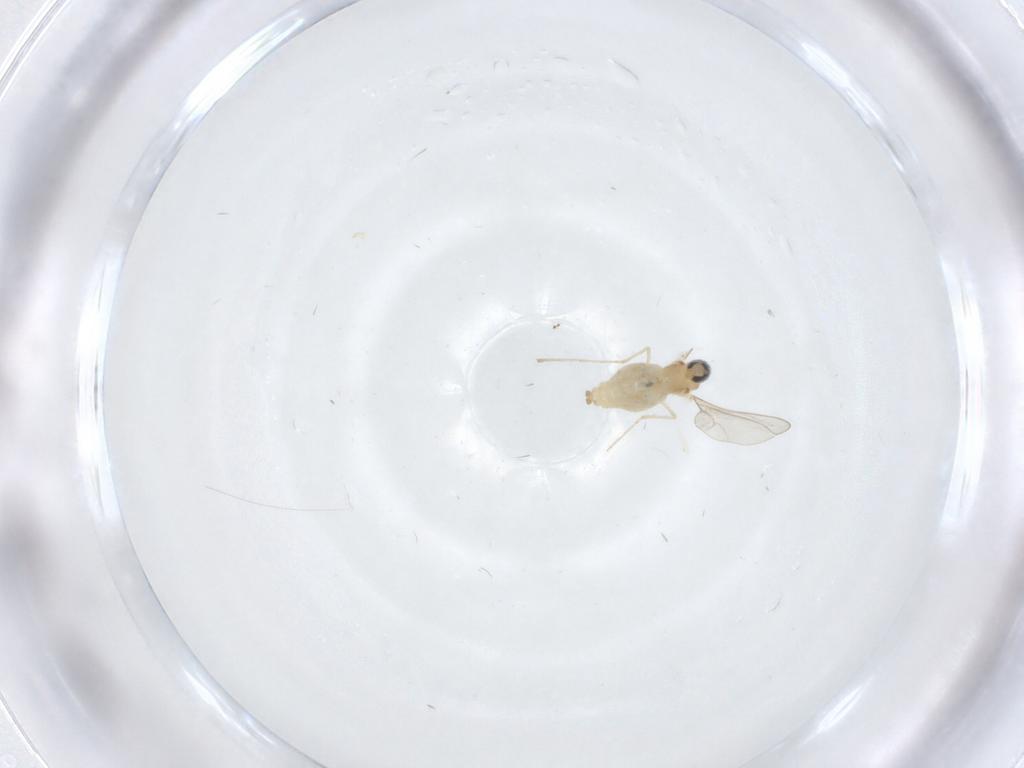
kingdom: Animalia
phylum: Arthropoda
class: Insecta
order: Diptera
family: Cecidomyiidae
